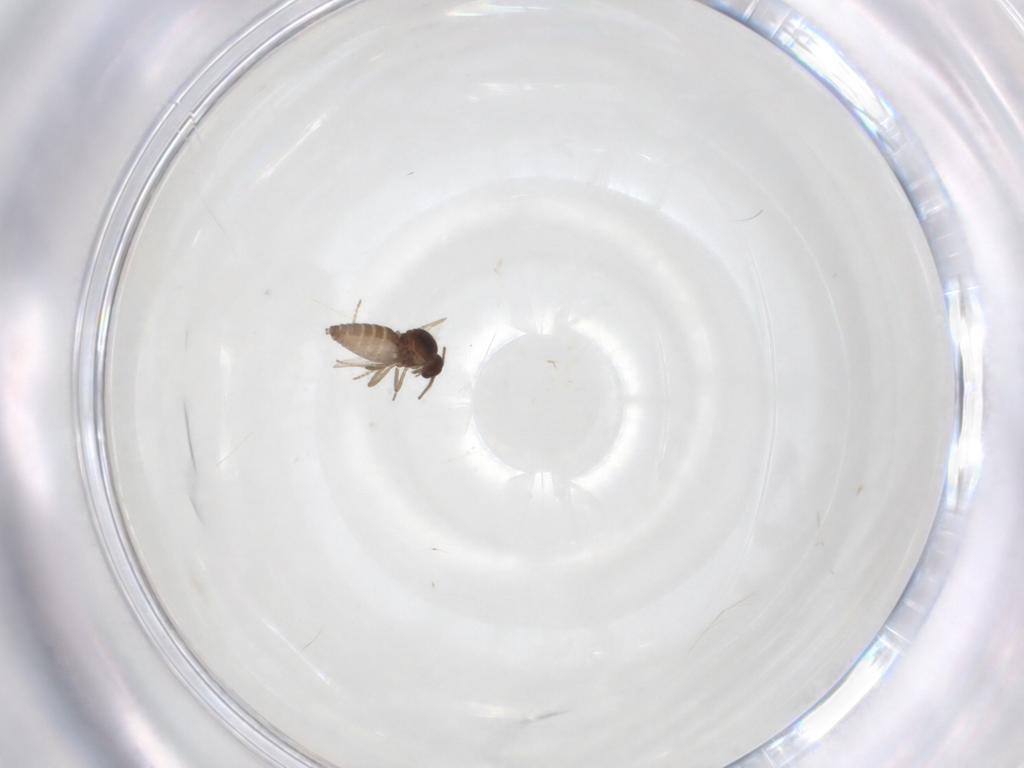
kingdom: Animalia
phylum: Arthropoda
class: Insecta
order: Diptera
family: Ceratopogonidae
